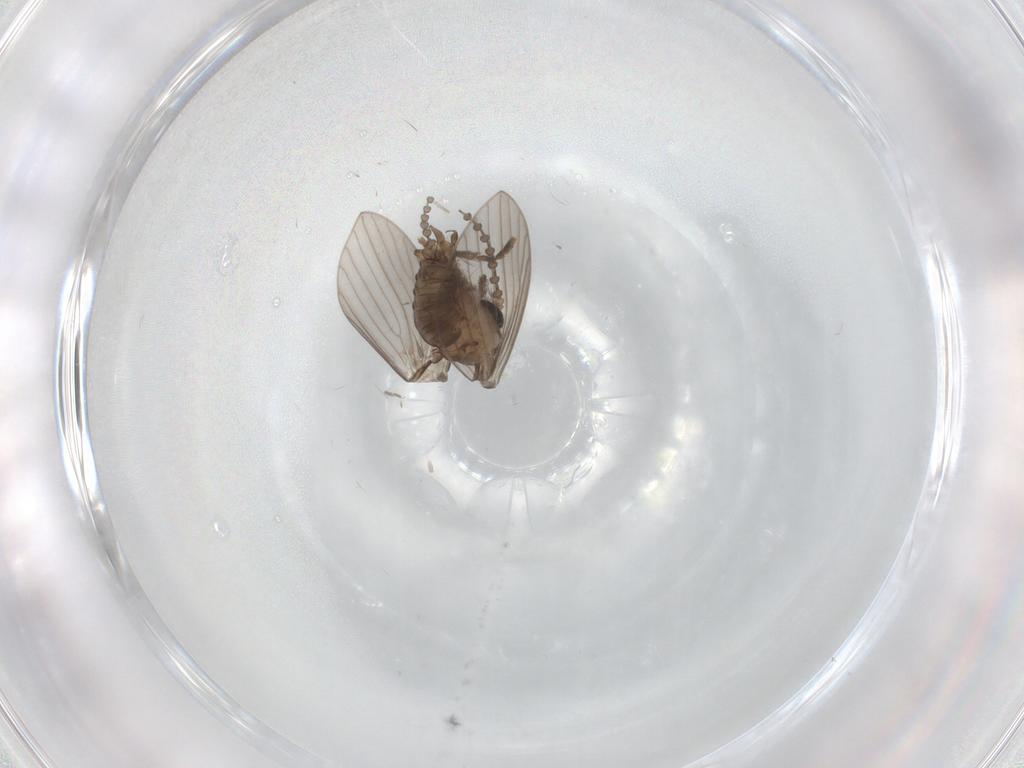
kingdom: Animalia
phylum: Arthropoda
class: Insecta
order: Diptera
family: Psychodidae
